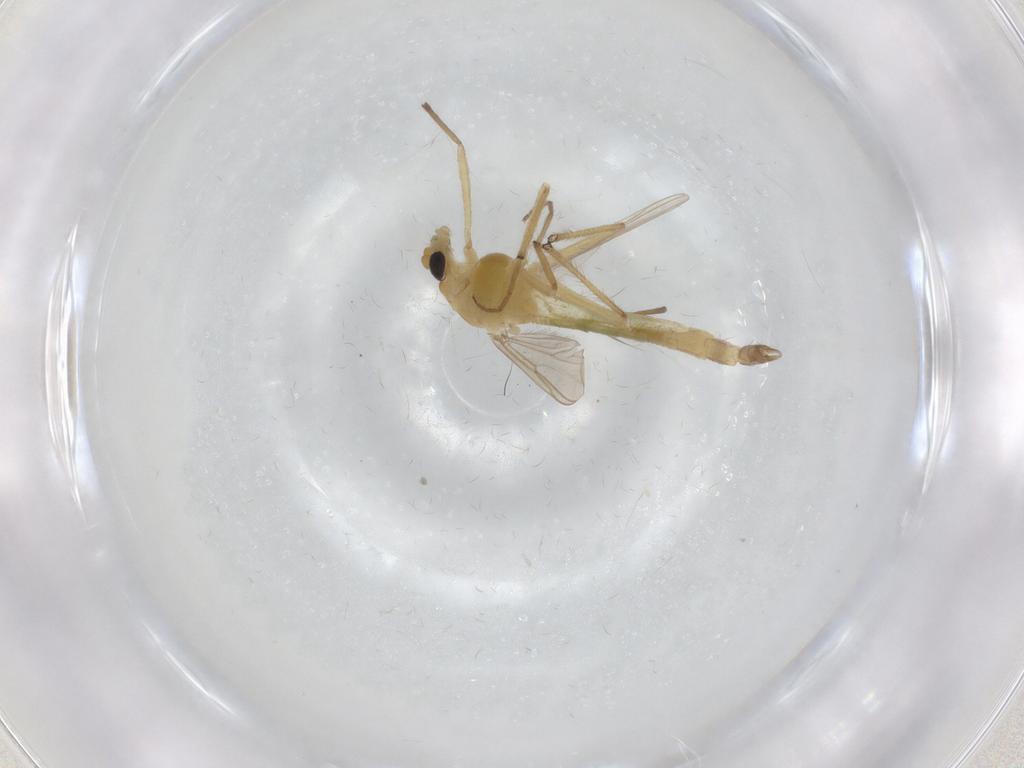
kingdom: Animalia
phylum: Arthropoda
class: Insecta
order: Diptera
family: Chironomidae
